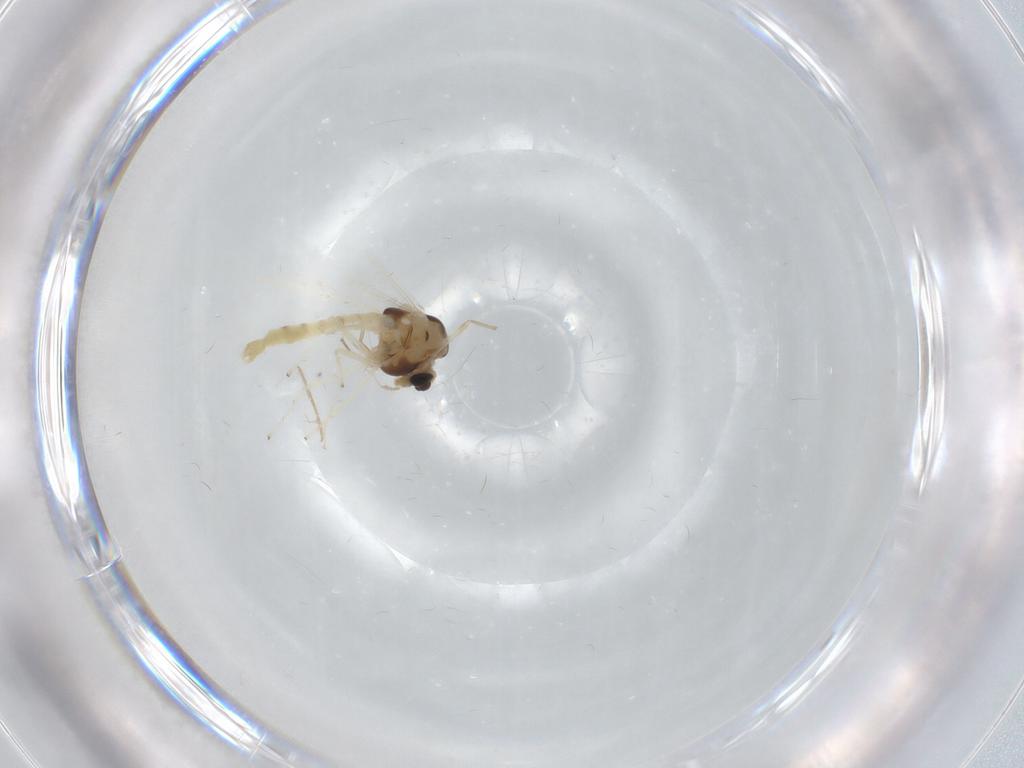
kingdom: Animalia
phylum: Arthropoda
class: Insecta
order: Diptera
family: Chironomidae
